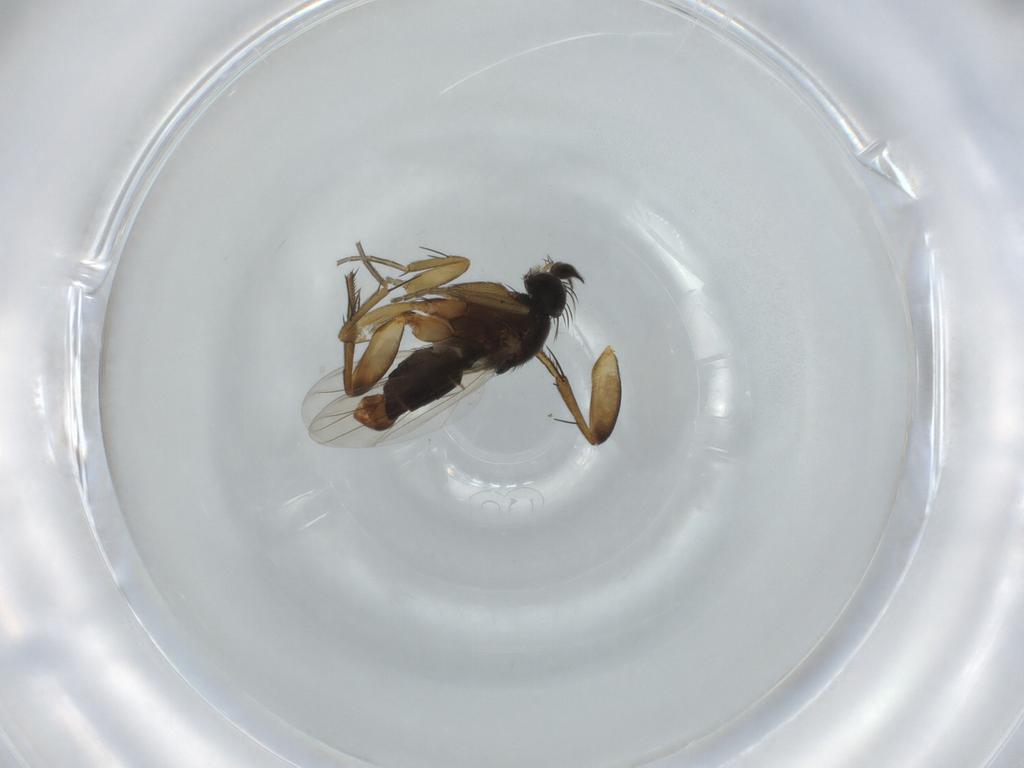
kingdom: Animalia
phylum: Arthropoda
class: Insecta
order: Diptera
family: Phoridae
